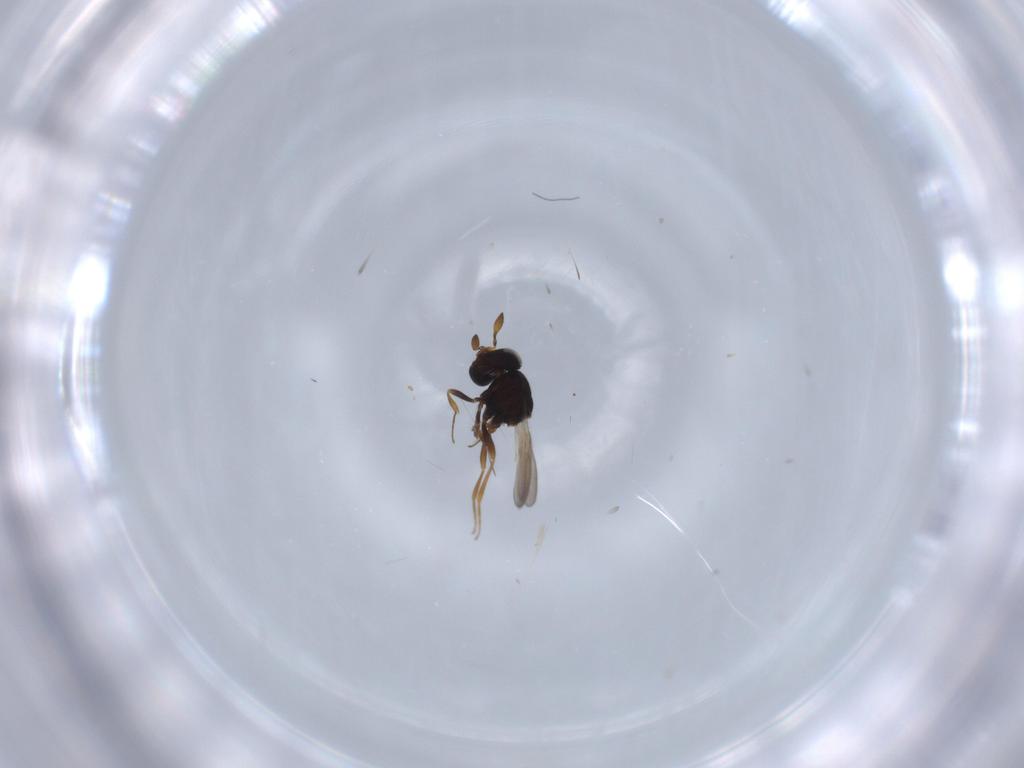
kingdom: Animalia
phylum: Arthropoda
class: Insecta
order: Hymenoptera
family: Scelionidae
